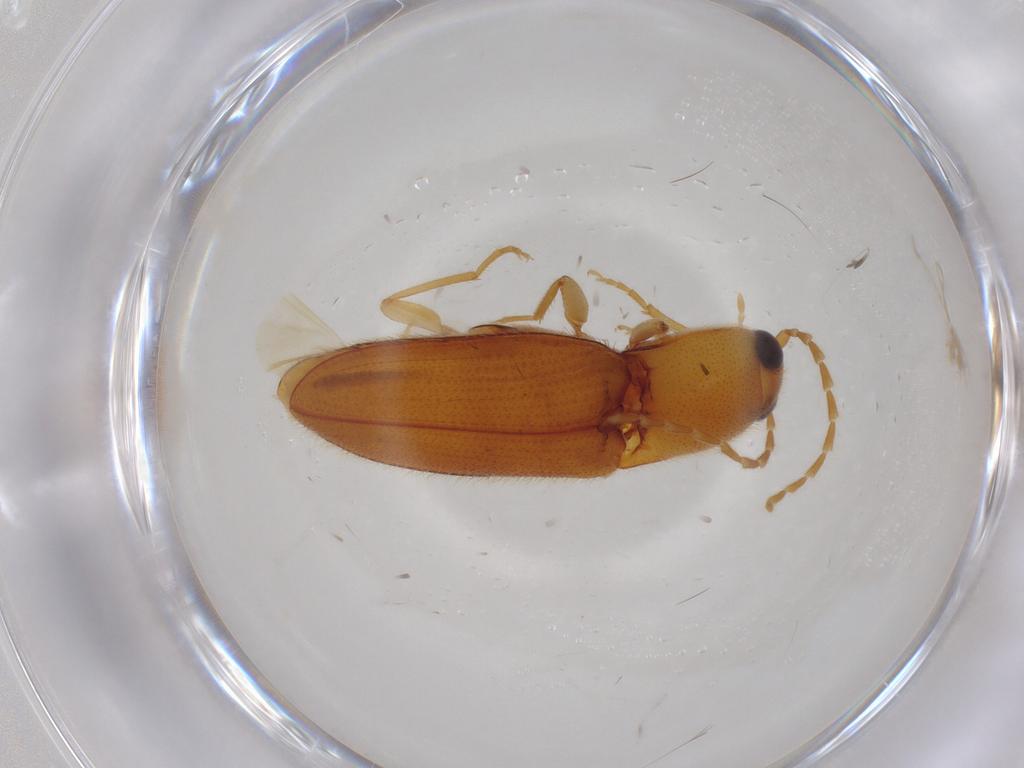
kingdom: Animalia
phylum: Arthropoda
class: Insecta
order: Coleoptera
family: Elateridae
